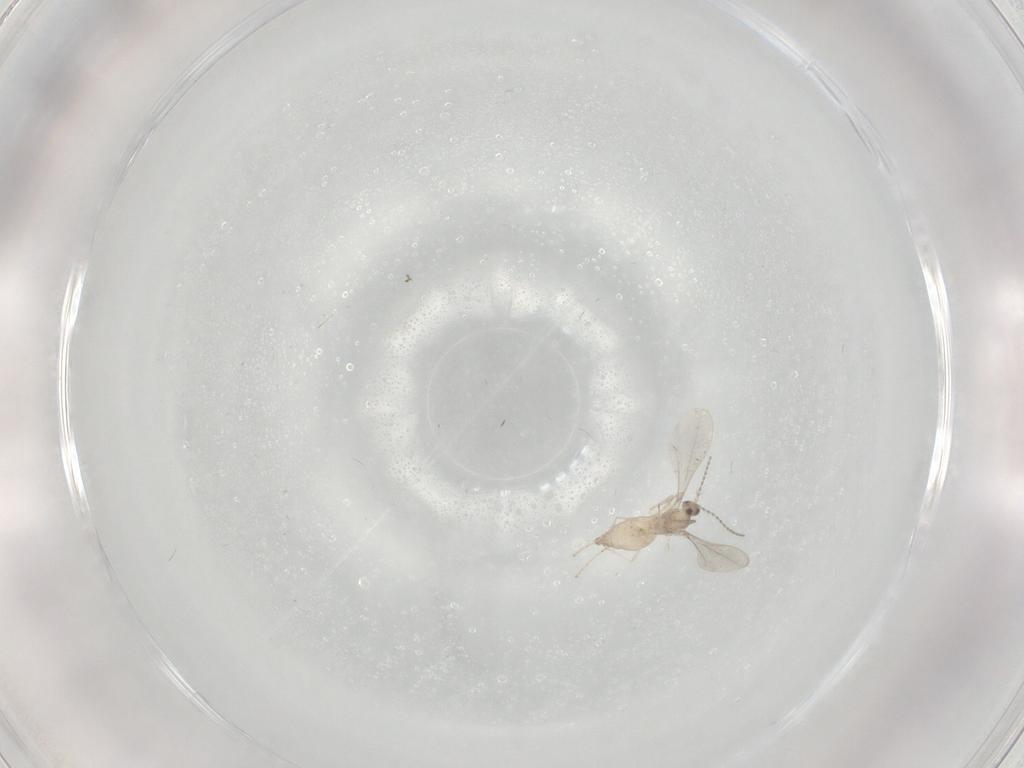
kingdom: Animalia
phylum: Arthropoda
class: Insecta
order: Diptera
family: Cecidomyiidae
